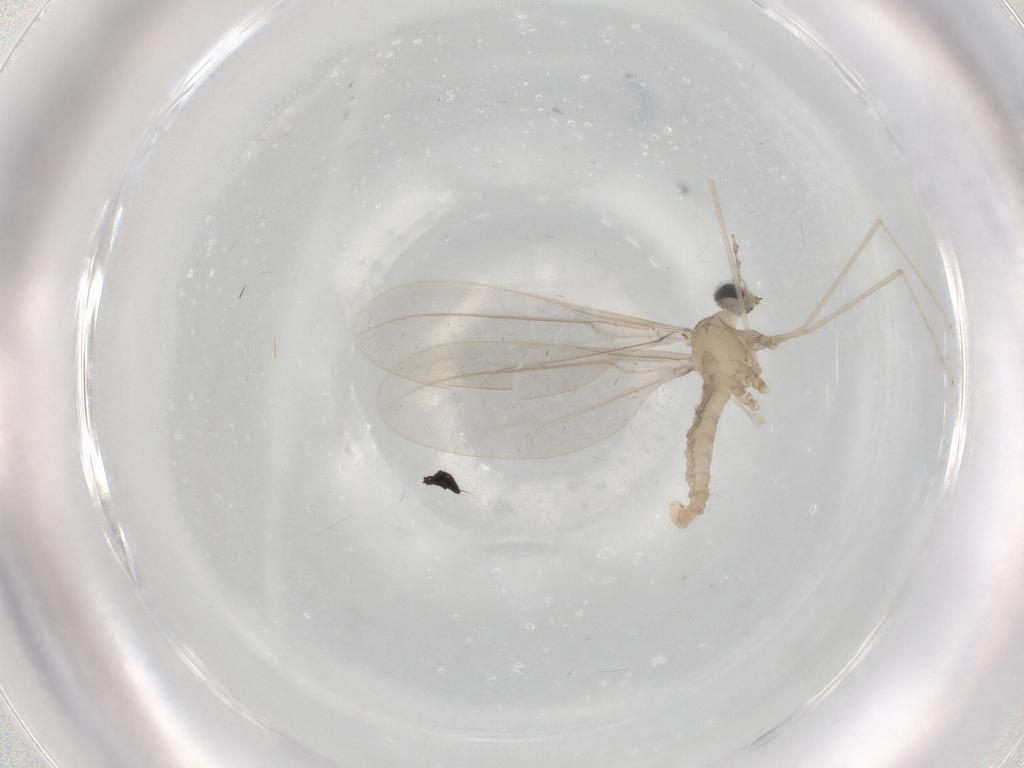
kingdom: Animalia
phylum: Arthropoda
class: Insecta
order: Diptera
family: Cecidomyiidae
